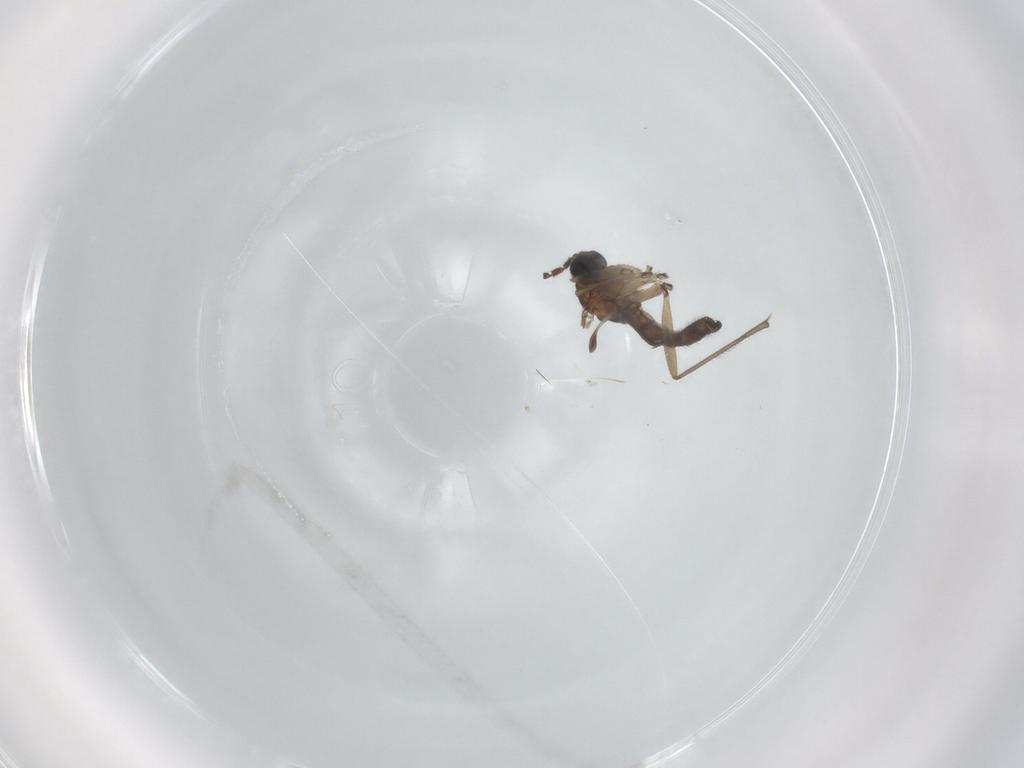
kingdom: Animalia
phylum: Arthropoda
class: Insecta
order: Diptera
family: Sciaridae
